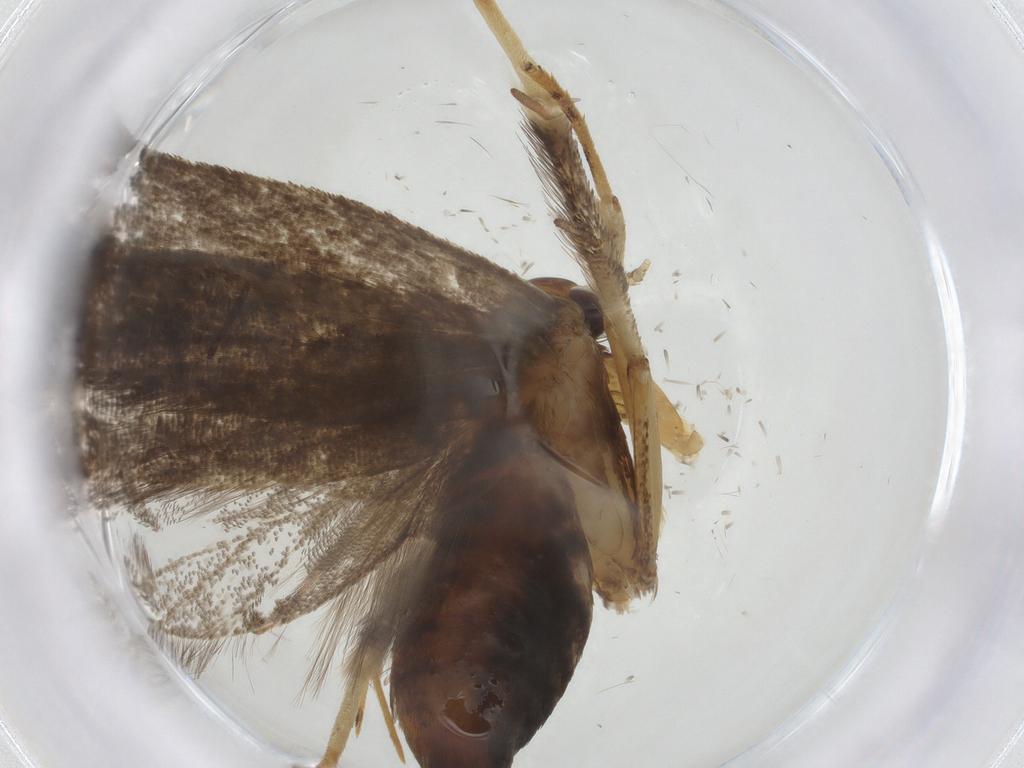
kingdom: Animalia
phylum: Arthropoda
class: Insecta
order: Lepidoptera
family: Lecithoceridae
